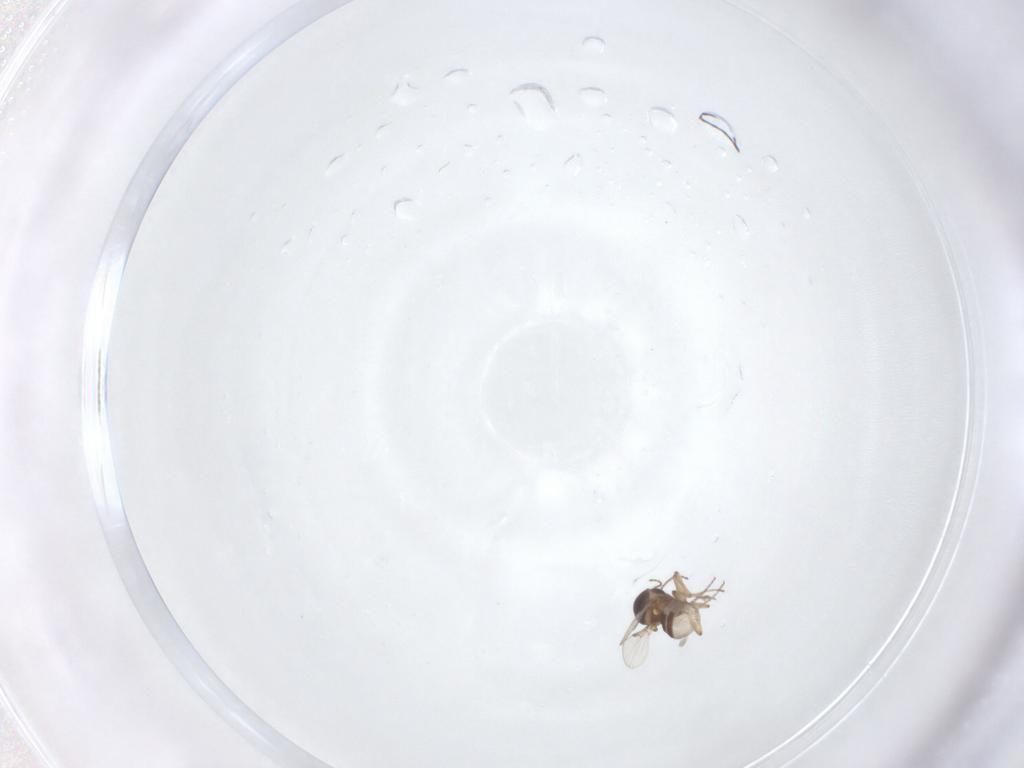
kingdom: Animalia
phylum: Arthropoda
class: Insecta
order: Diptera
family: Ceratopogonidae
